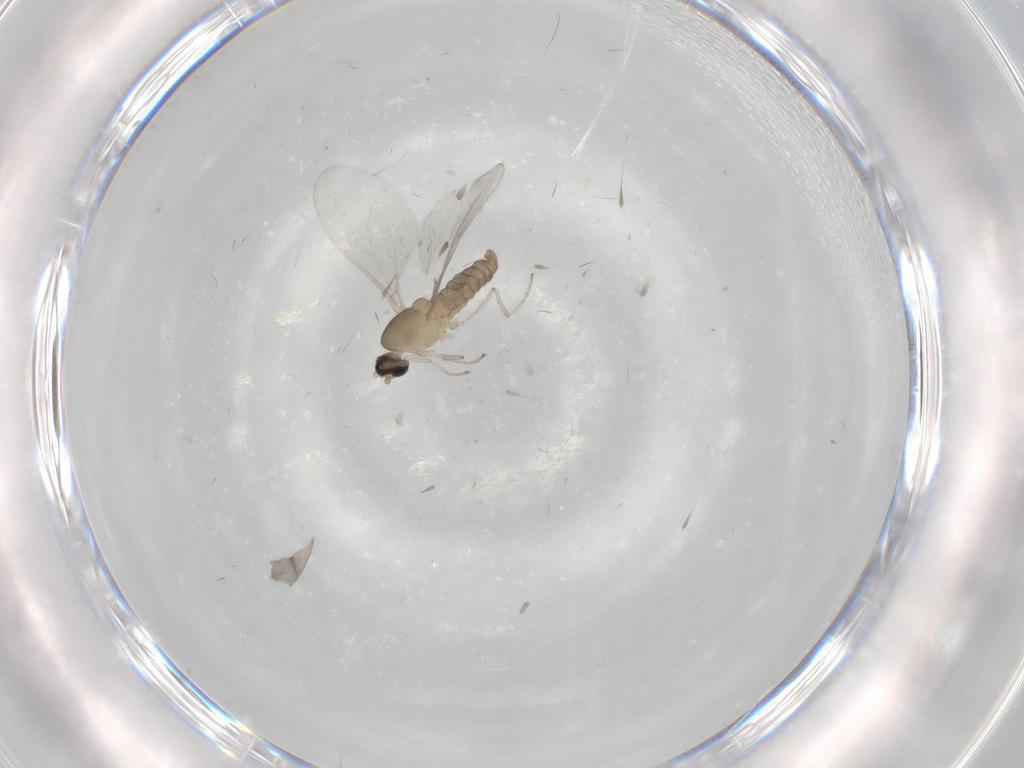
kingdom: Animalia
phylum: Arthropoda
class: Insecta
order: Diptera
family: Cecidomyiidae
